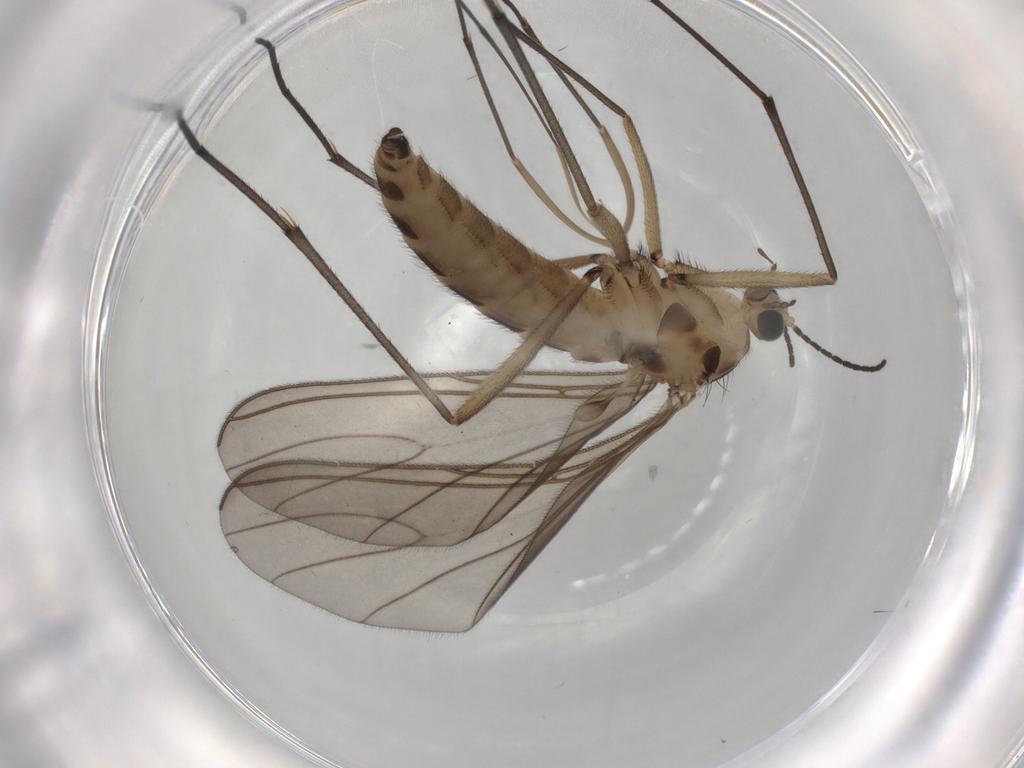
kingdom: Animalia
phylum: Arthropoda
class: Insecta
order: Diptera
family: Sciaridae
